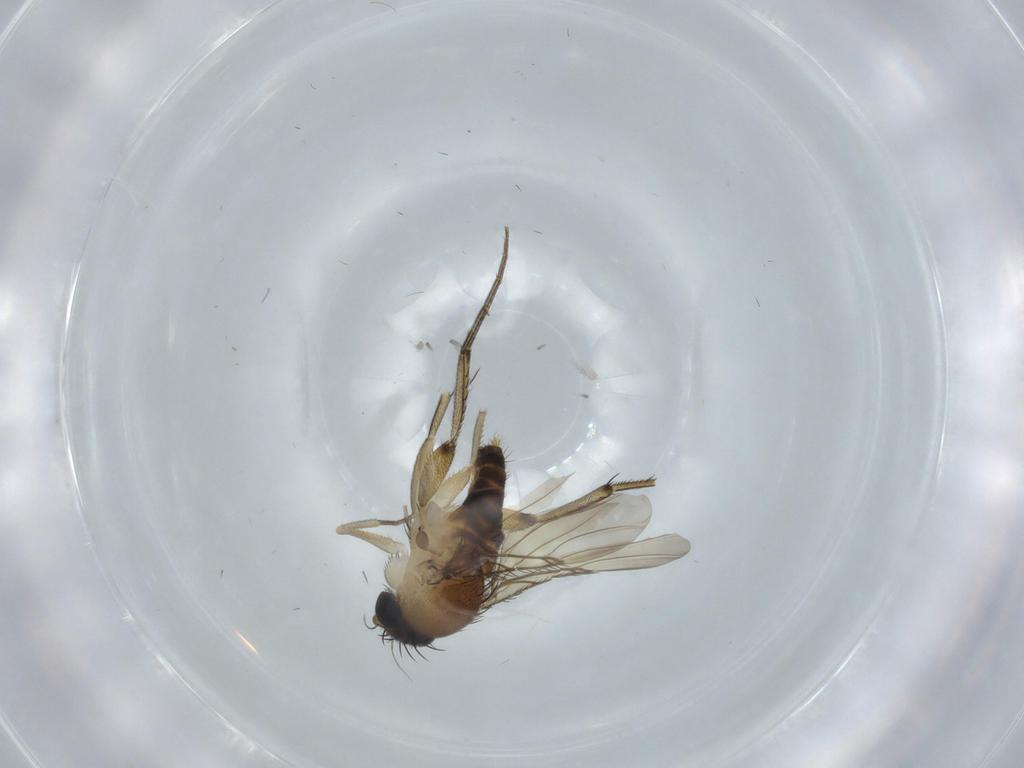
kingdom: Animalia
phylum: Arthropoda
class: Insecta
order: Diptera
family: Phoridae
